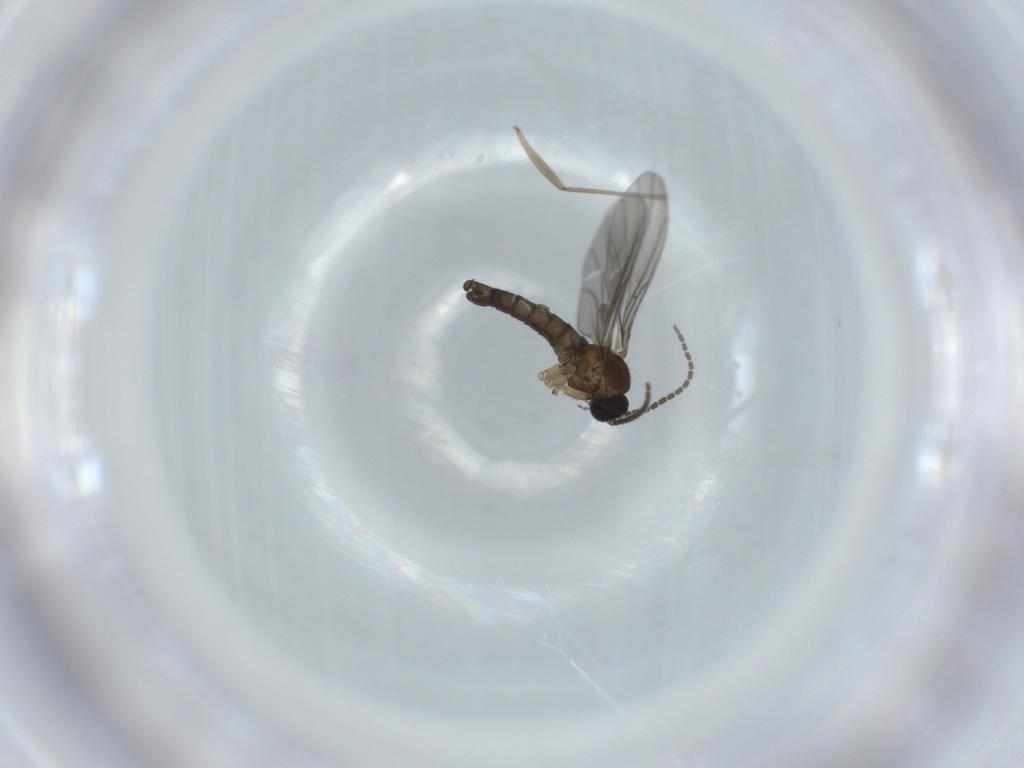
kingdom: Animalia
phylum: Arthropoda
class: Insecta
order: Diptera
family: Sciaridae
